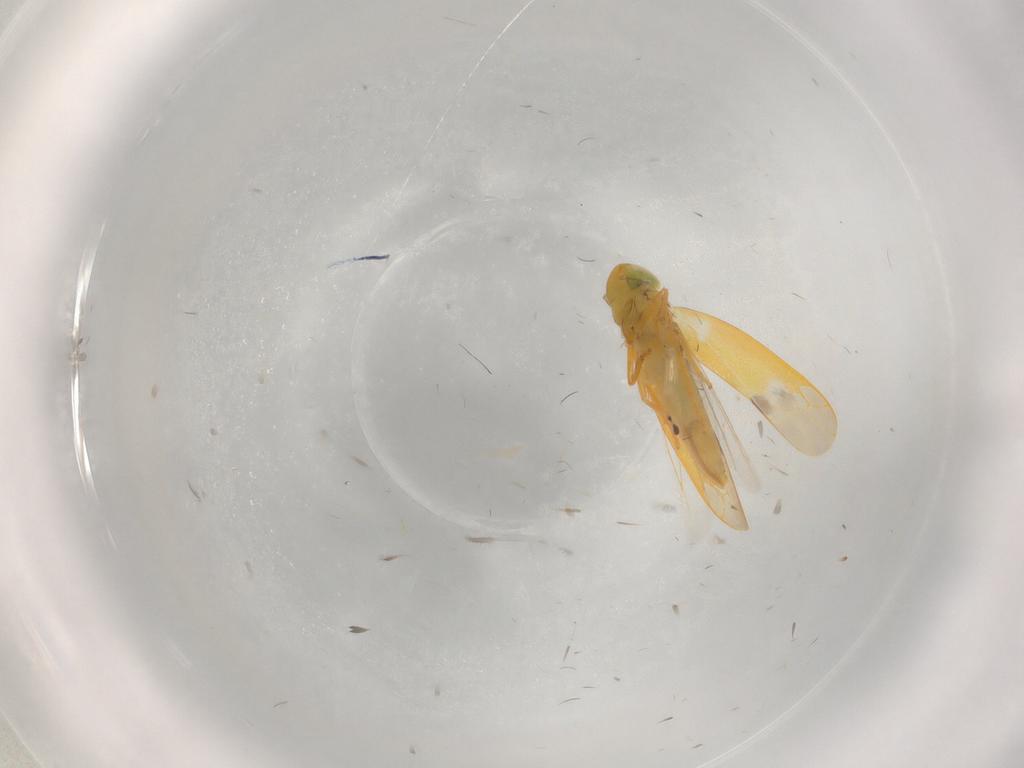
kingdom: Animalia
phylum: Arthropoda
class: Insecta
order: Hemiptera
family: Cicadellidae
